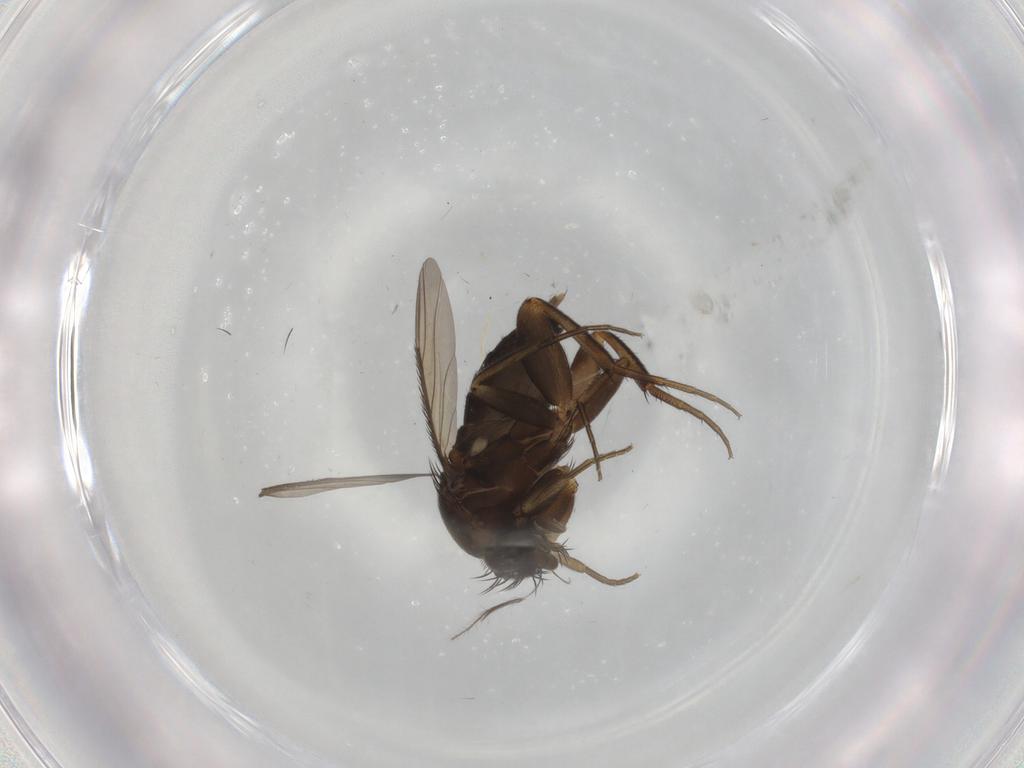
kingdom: Animalia
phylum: Arthropoda
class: Insecta
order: Diptera
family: Phoridae
